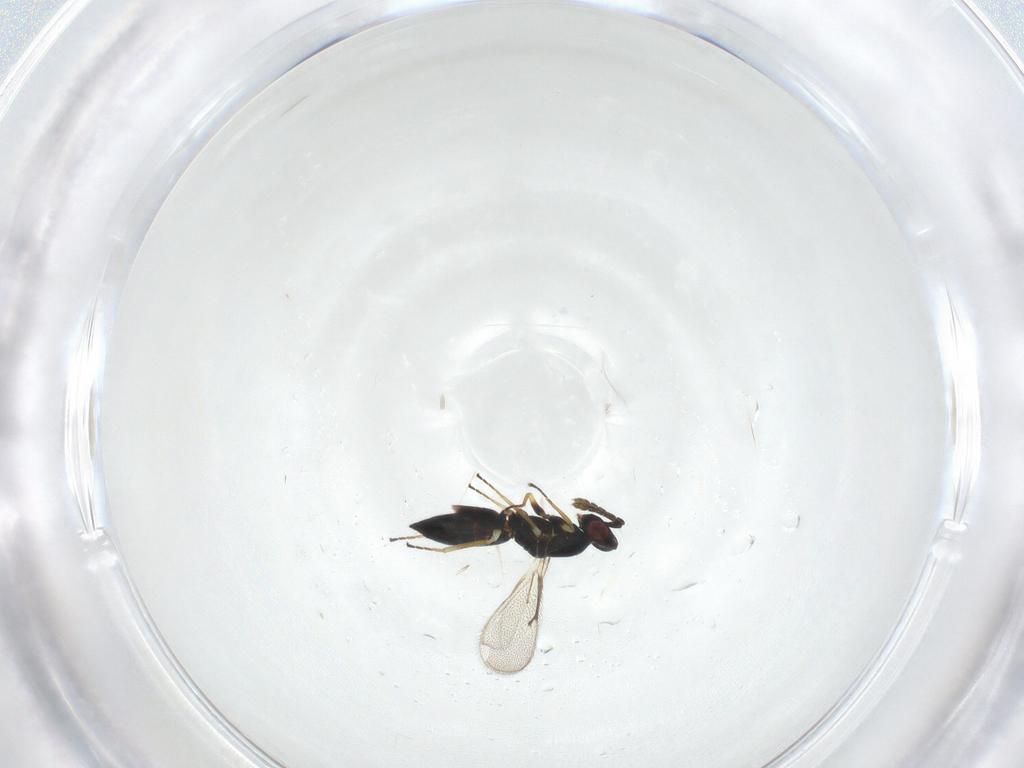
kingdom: Animalia
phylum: Arthropoda
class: Insecta
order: Hymenoptera
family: Eulophidae
